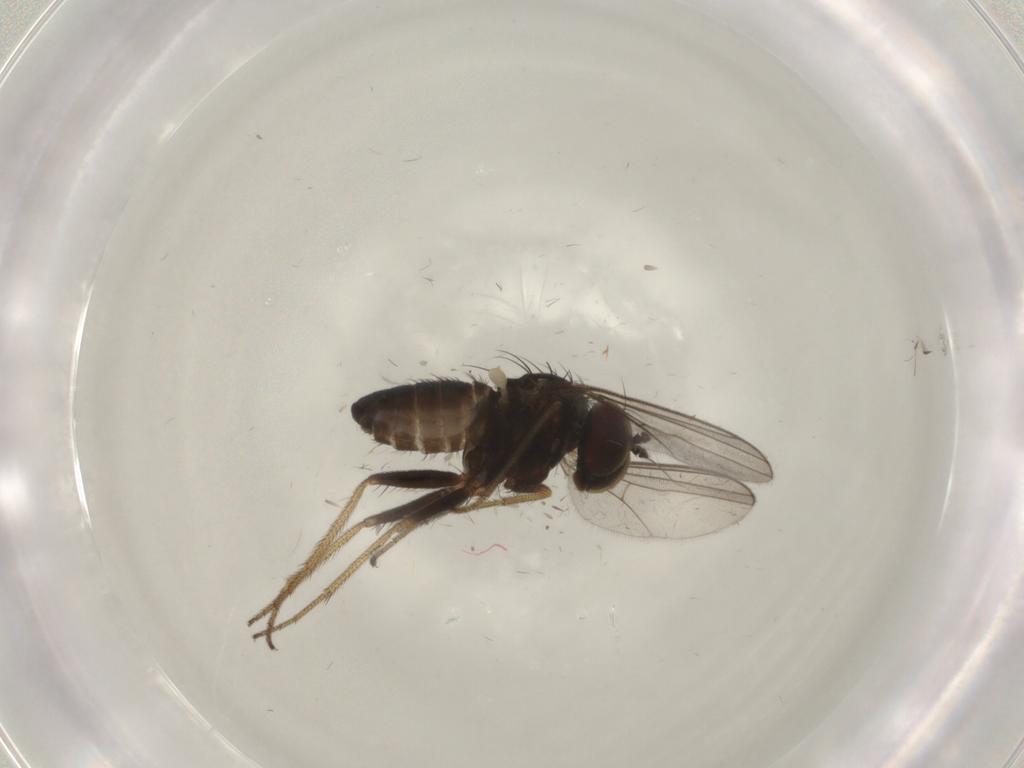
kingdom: Animalia
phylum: Arthropoda
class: Insecta
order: Diptera
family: Dolichopodidae
